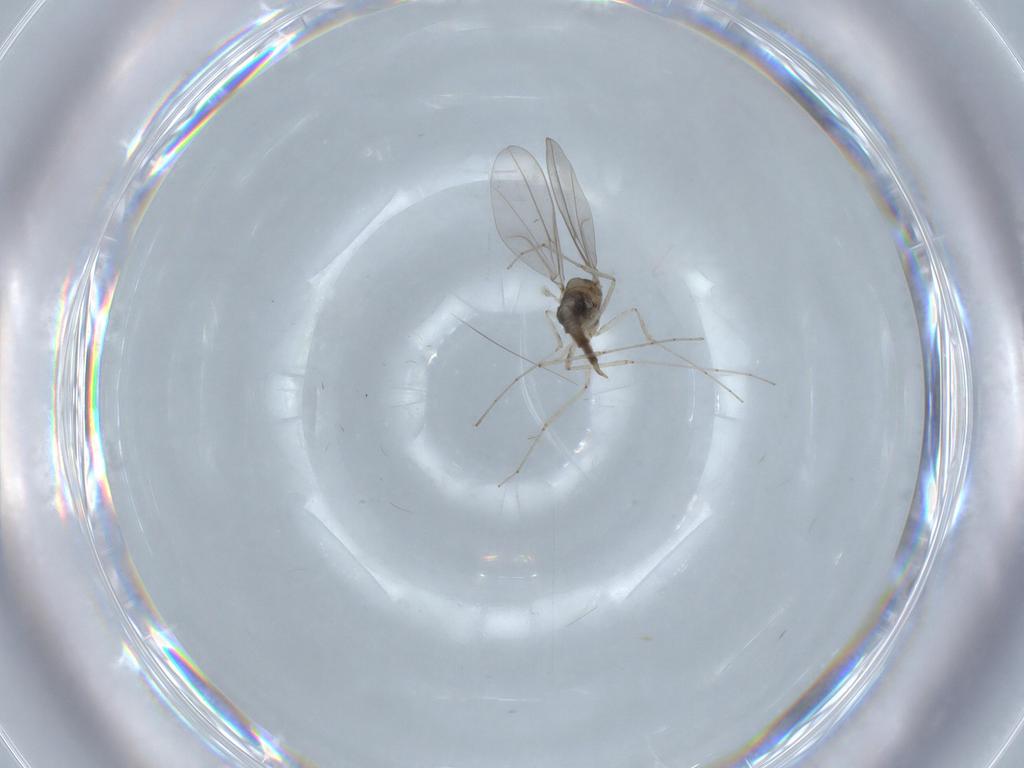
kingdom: Animalia
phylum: Arthropoda
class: Insecta
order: Diptera
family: Cecidomyiidae
